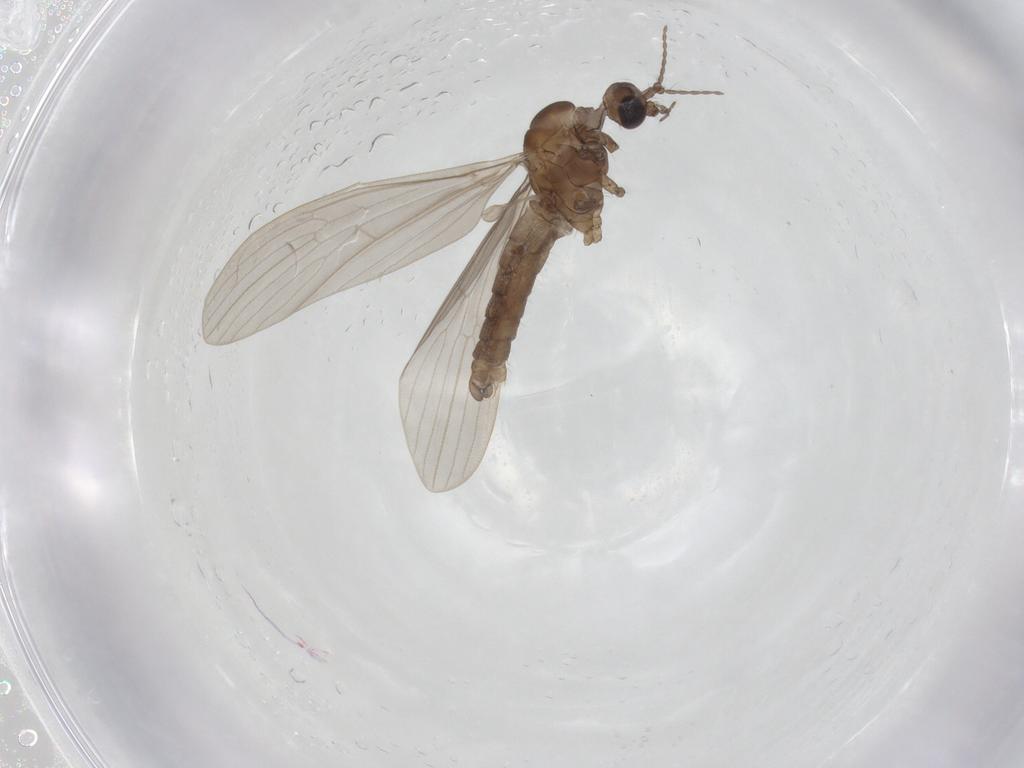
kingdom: Animalia
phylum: Arthropoda
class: Insecta
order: Diptera
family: Limoniidae
